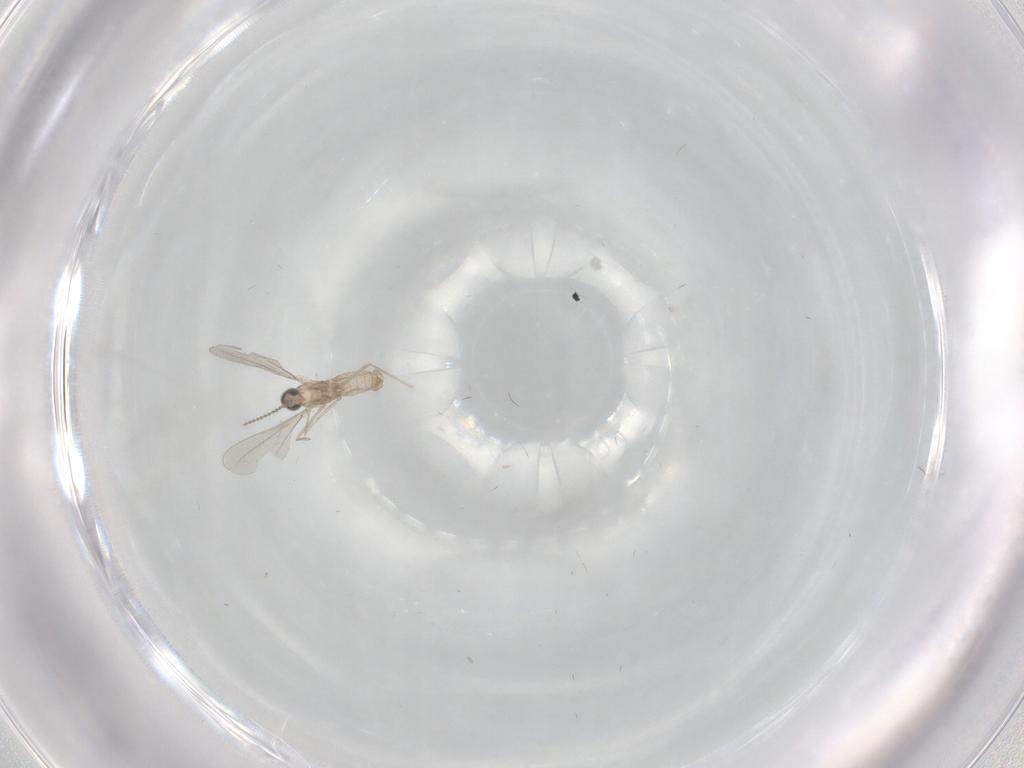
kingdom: Animalia
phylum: Arthropoda
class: Insecta
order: Diptera
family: Cecidomyiidae
